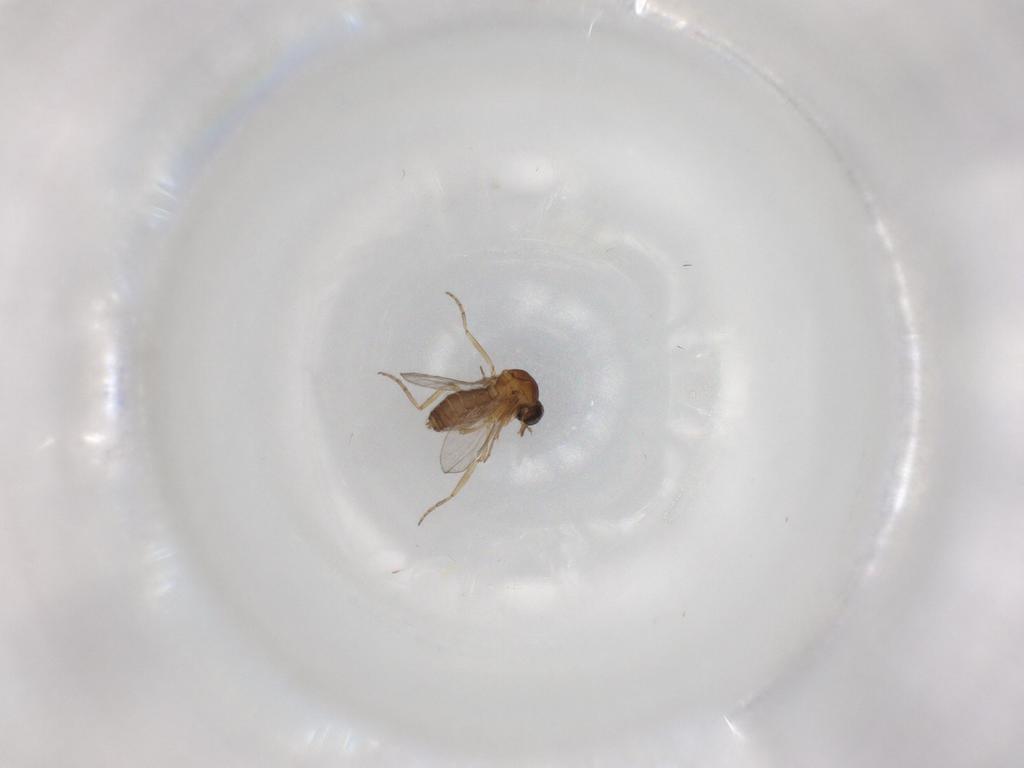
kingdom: Animalia
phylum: Arthropoda
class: Insecta
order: Diptera
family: Ceratopogonidae
